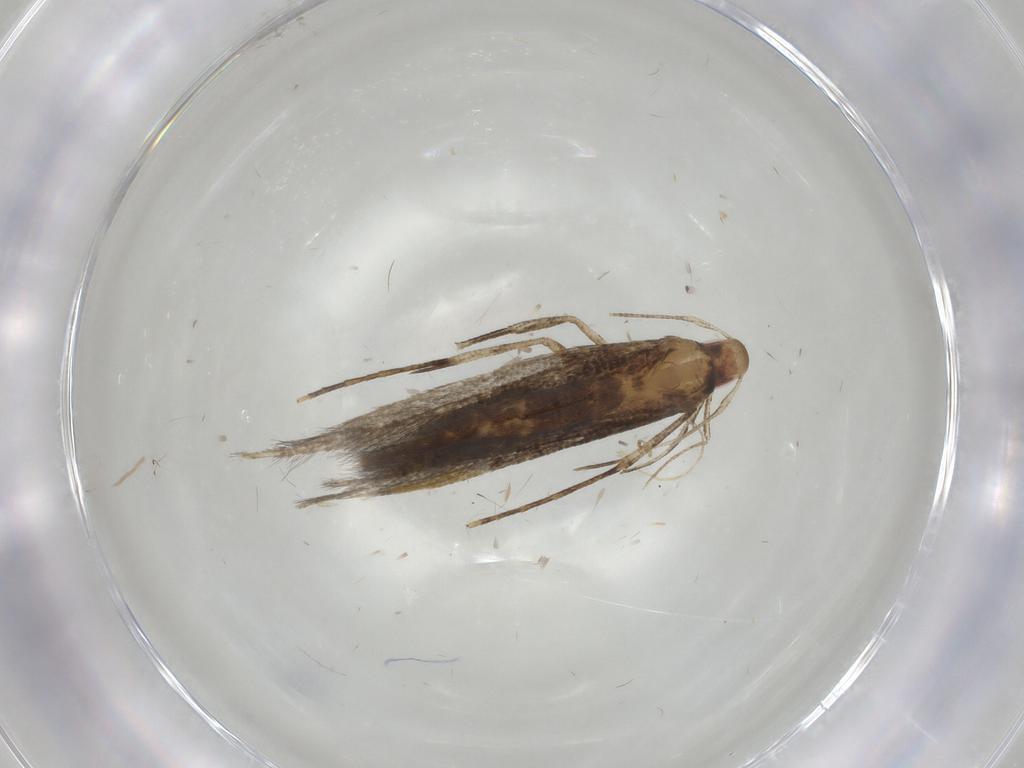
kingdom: Animalia
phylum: Arthropoda
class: Insecta
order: Lepidoptera
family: Cosmopterigidae
